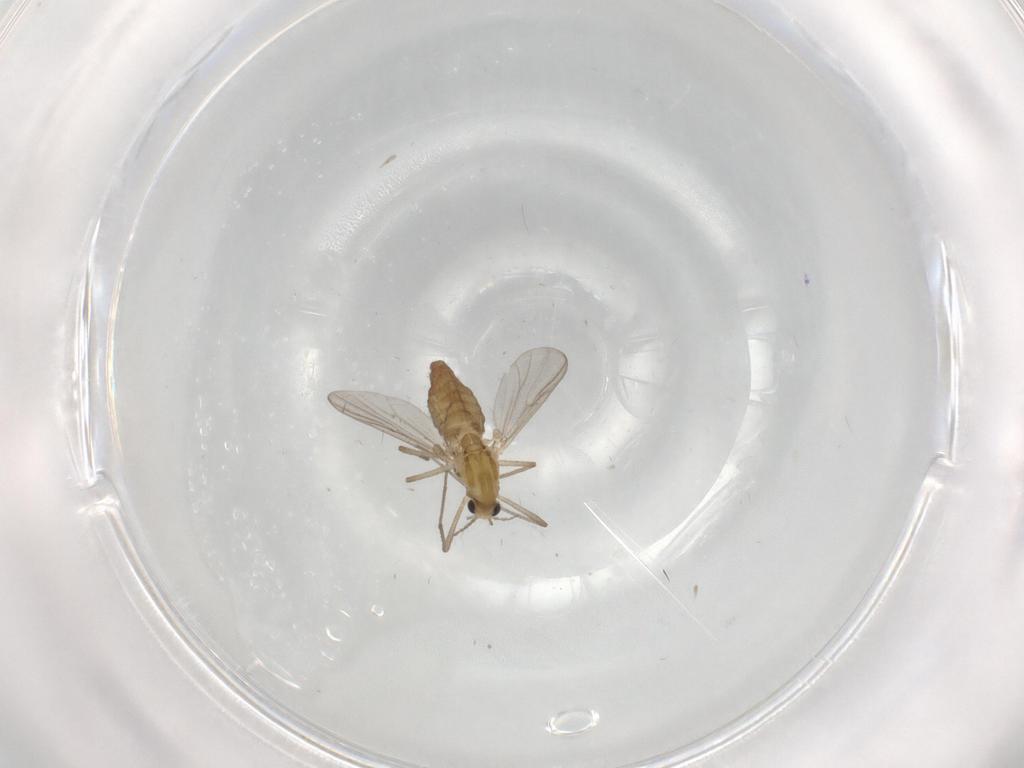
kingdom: Animalia
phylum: Arthropoda
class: Insecta
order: Diptera
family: Chironomidae
